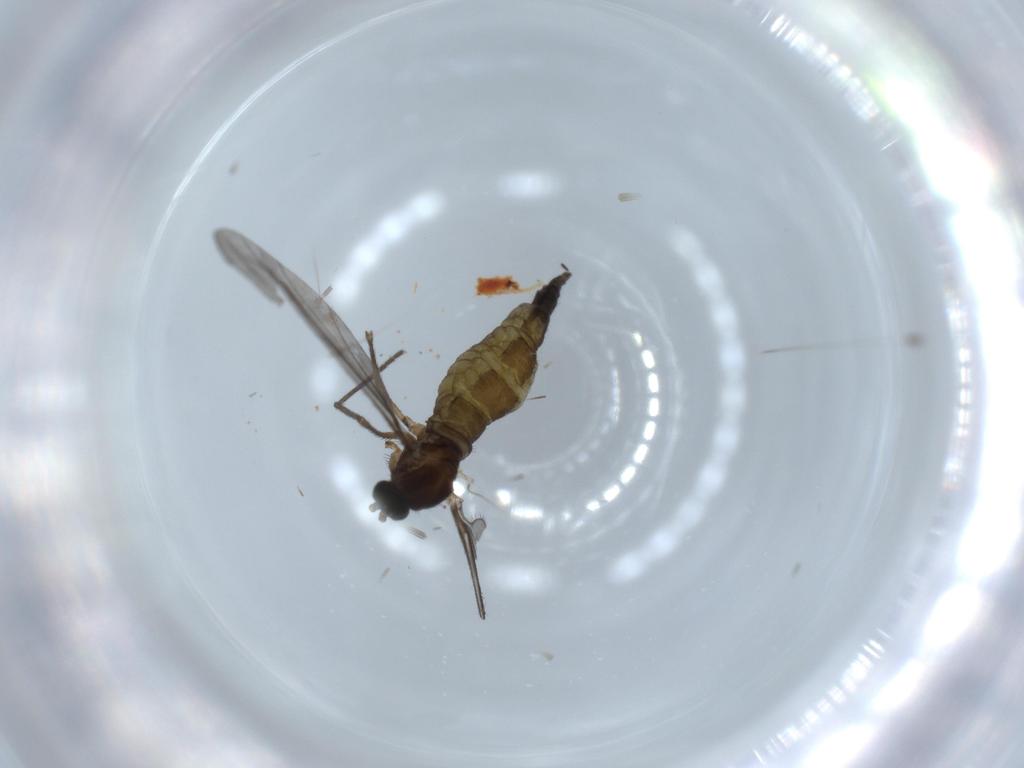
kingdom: Animalia
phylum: Arthropoda
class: Insecta
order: Diptera
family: Sciaridae
